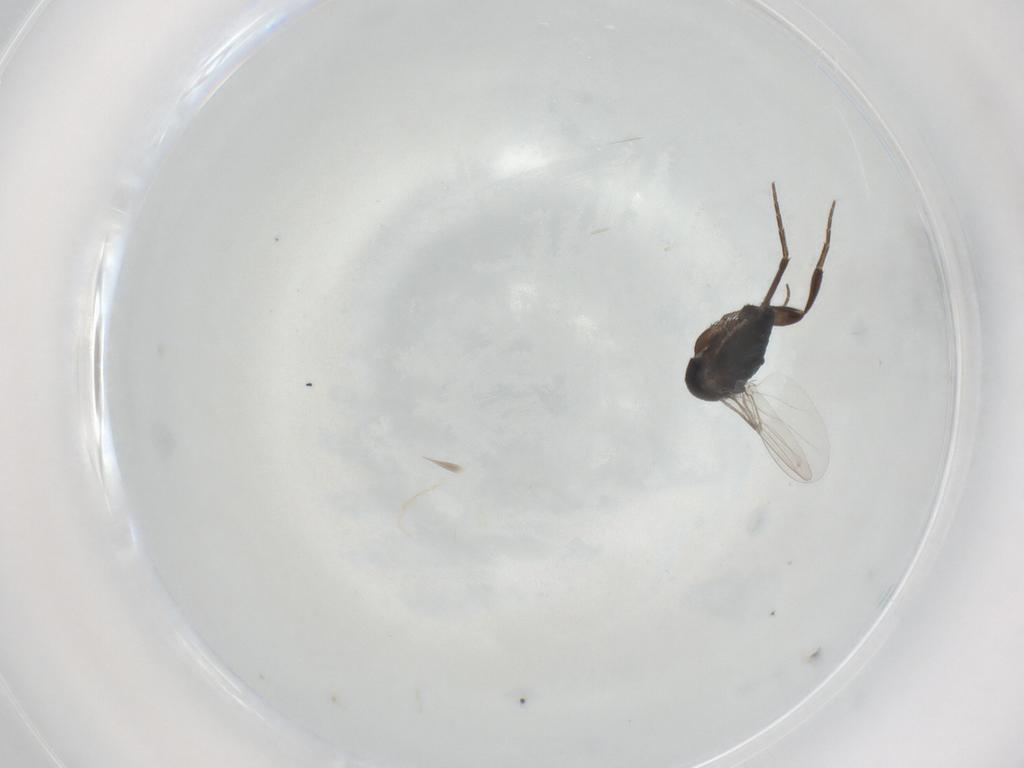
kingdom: Animalia
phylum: Arthropoda
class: Insecta
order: Diptera
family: Phoridae
